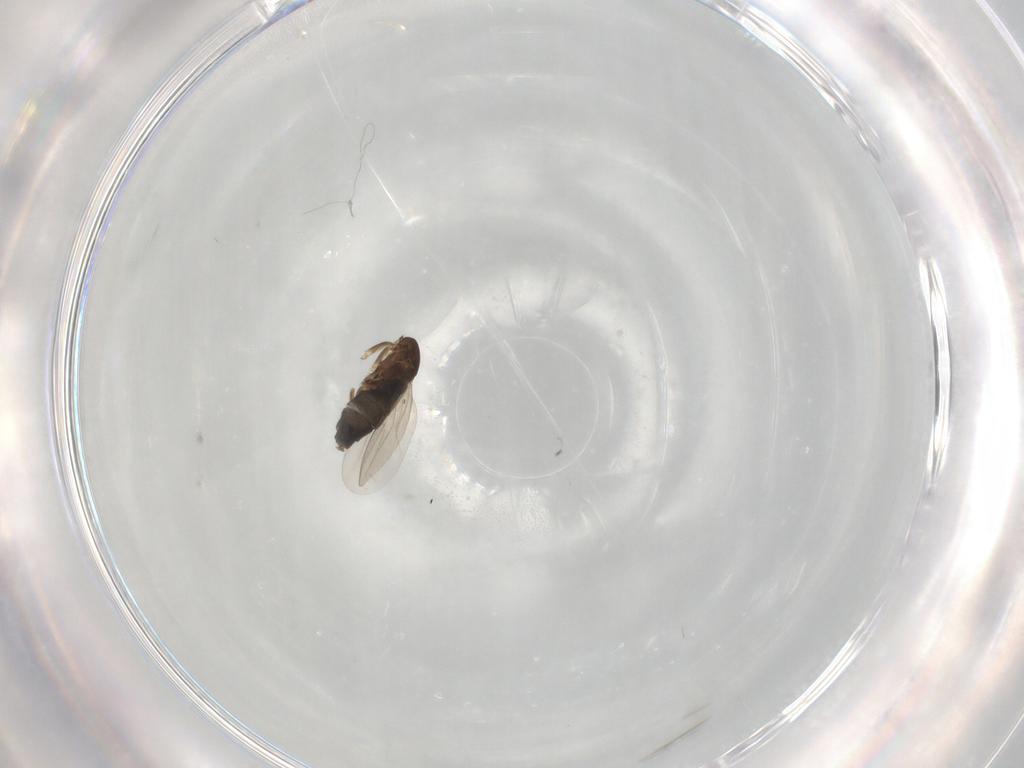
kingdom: Animalia
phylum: Arthropoda
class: Insecta
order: Diptera
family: Phoridae
